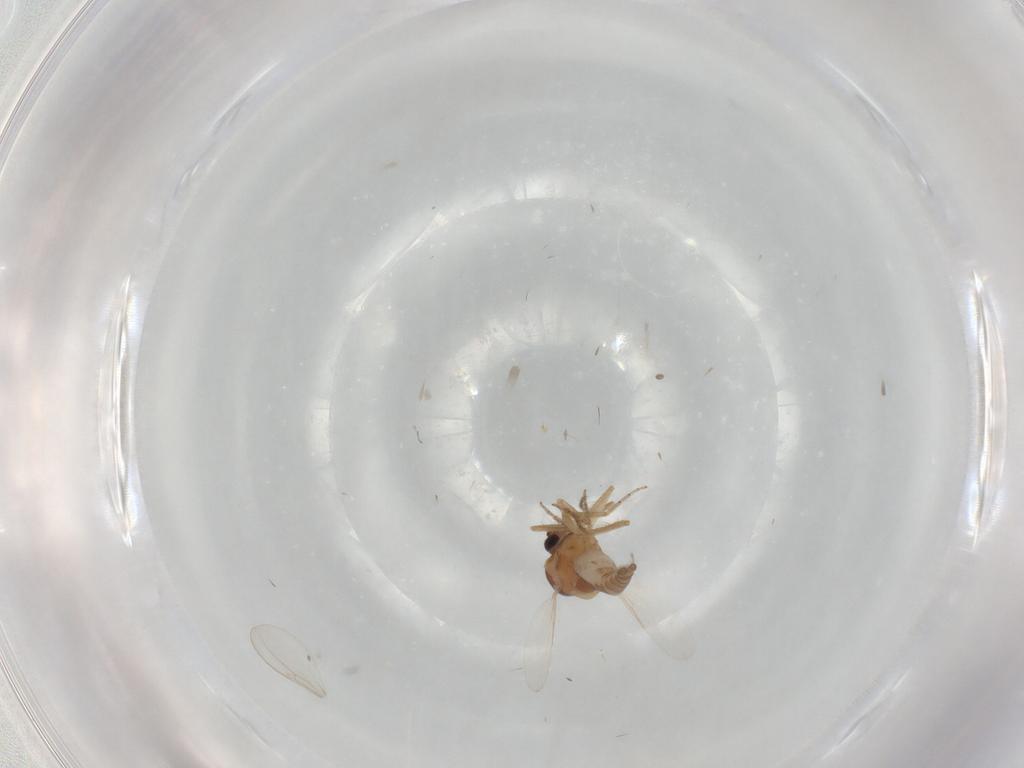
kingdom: Animalia
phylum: Arthropoda
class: Insecta
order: Diptera
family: Ceratopogonidae
